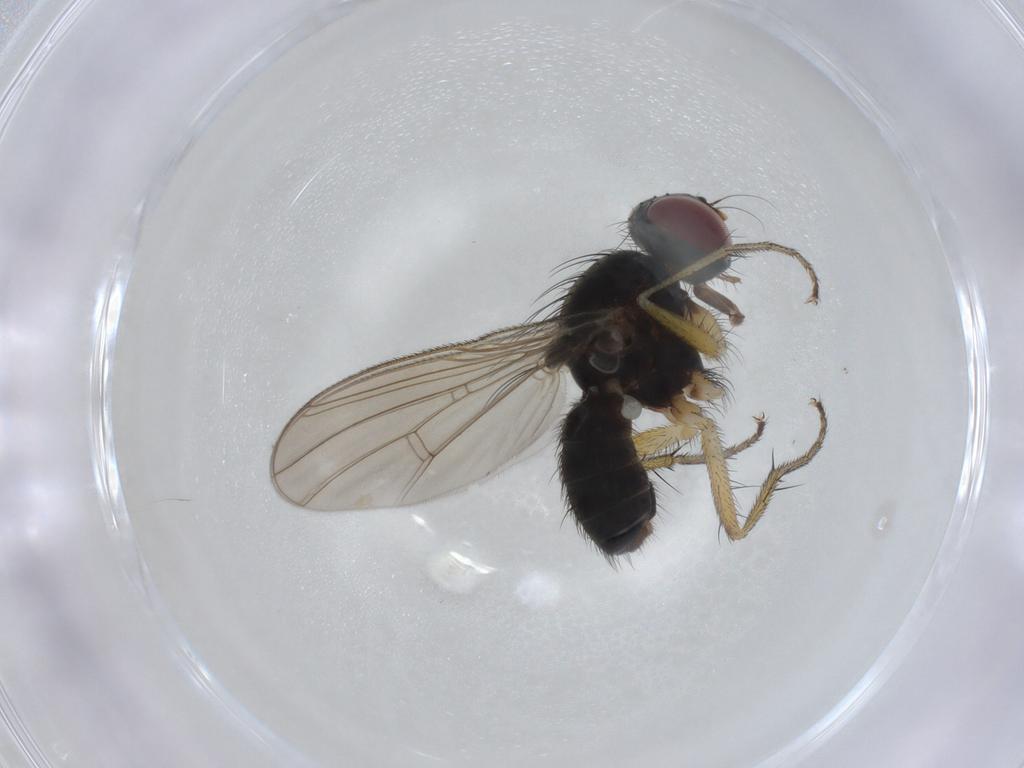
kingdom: Animalia
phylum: Arthropoda
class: Insecta
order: Diptera
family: Muscidae
